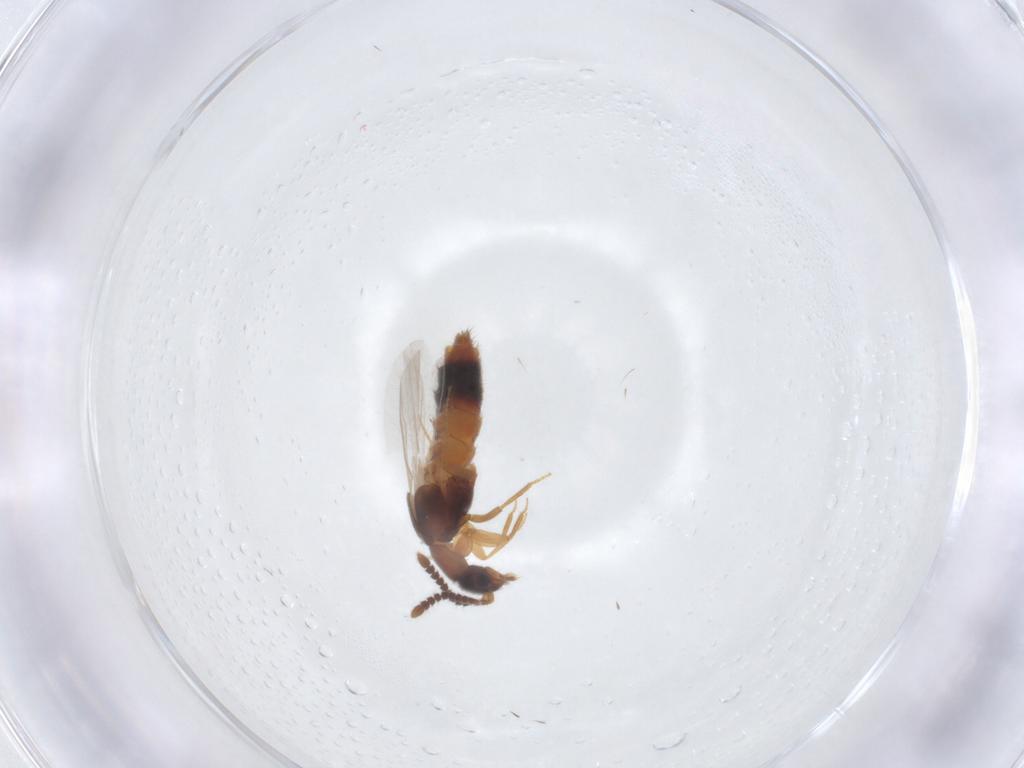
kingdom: Animalia
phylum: Arthropoda
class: Insecta
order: Coleoptera
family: Staphylinidae
